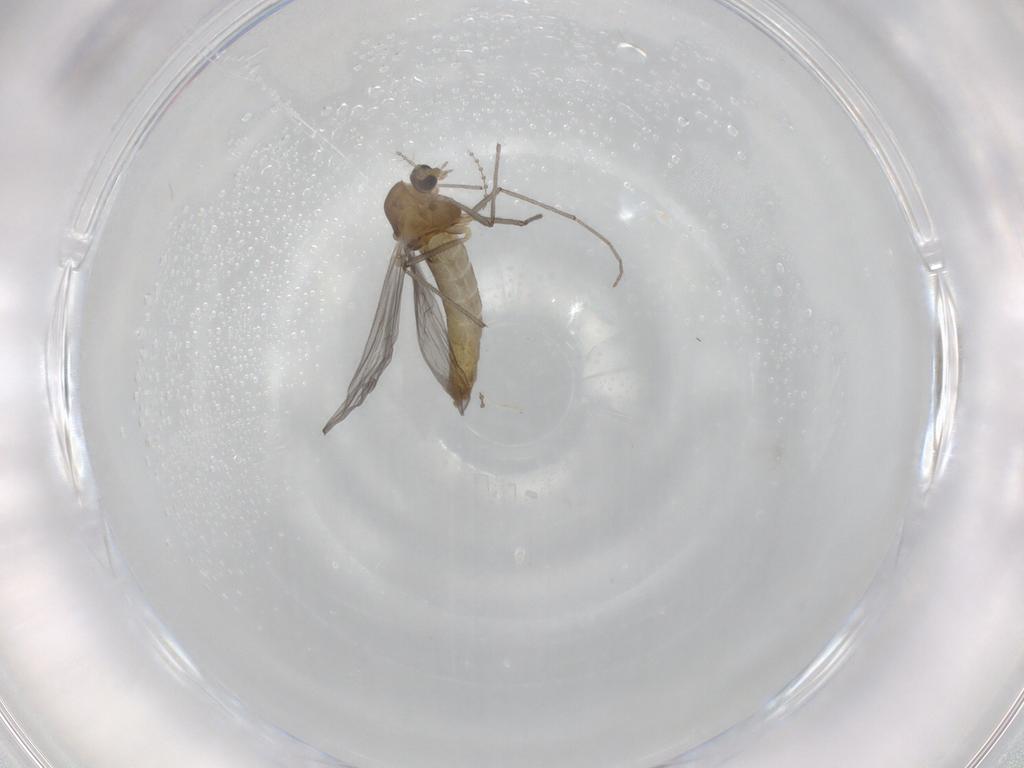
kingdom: Animalia
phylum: Arthropoda
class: Insecta
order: Diptera
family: Chironomidae
